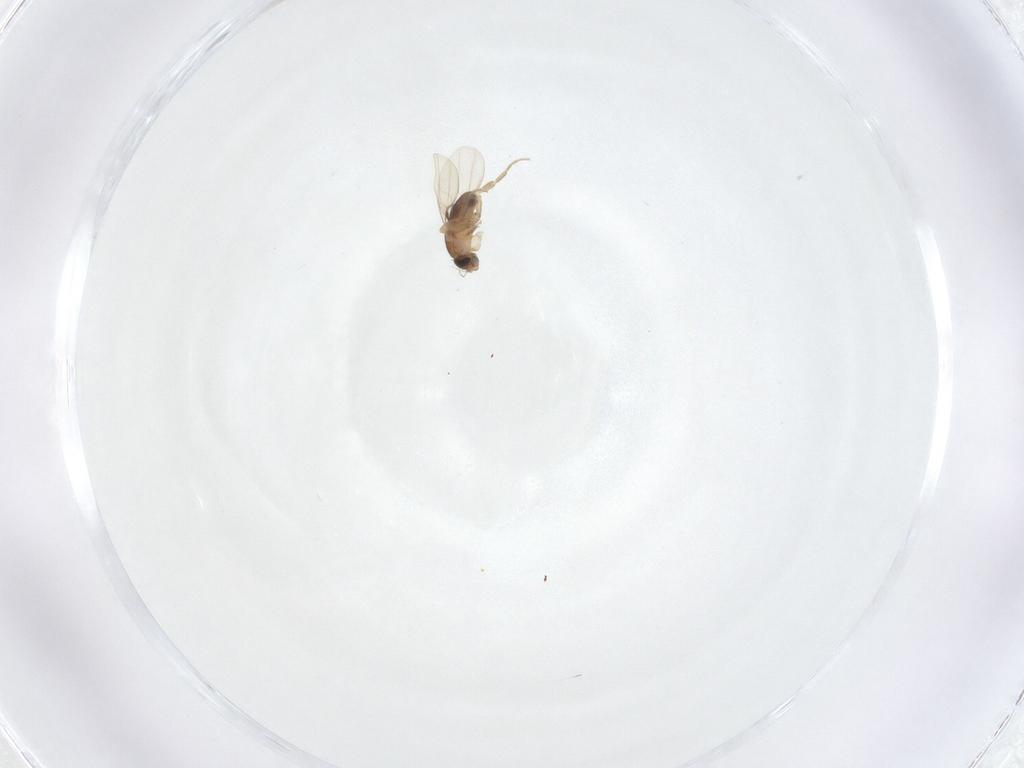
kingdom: Animalia
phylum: Arthropoda
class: Insecta
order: Diptera
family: Phoridae
